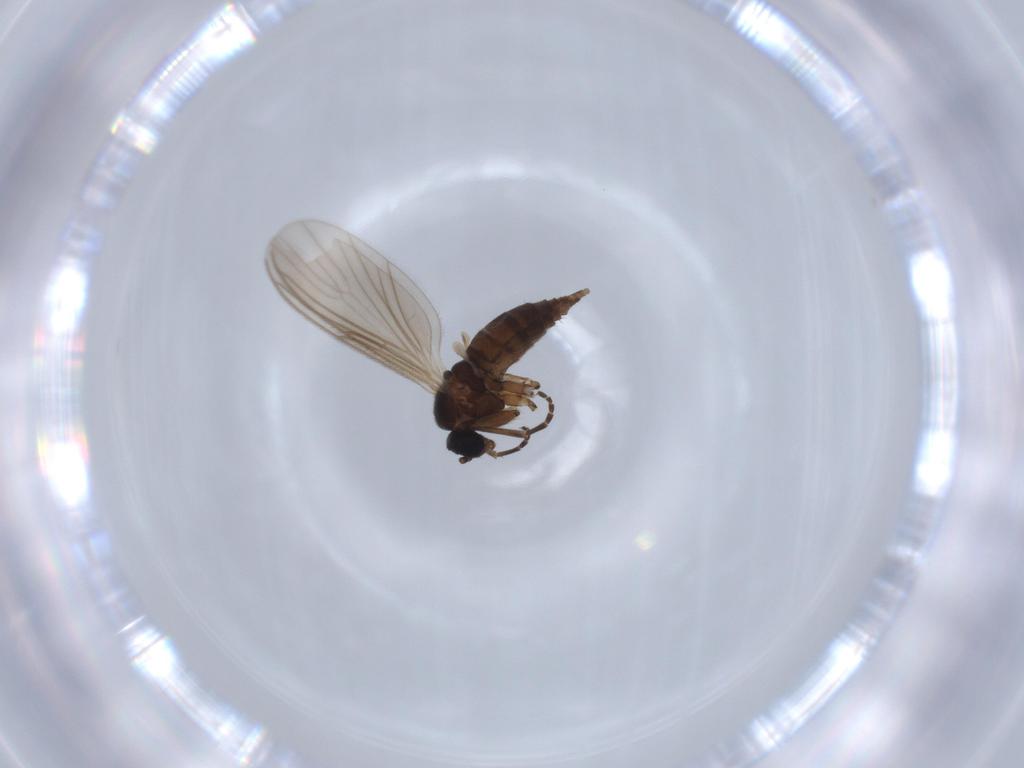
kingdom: Animalia
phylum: Arthropoda
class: Insecta
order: Diptera
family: Sciaridae
